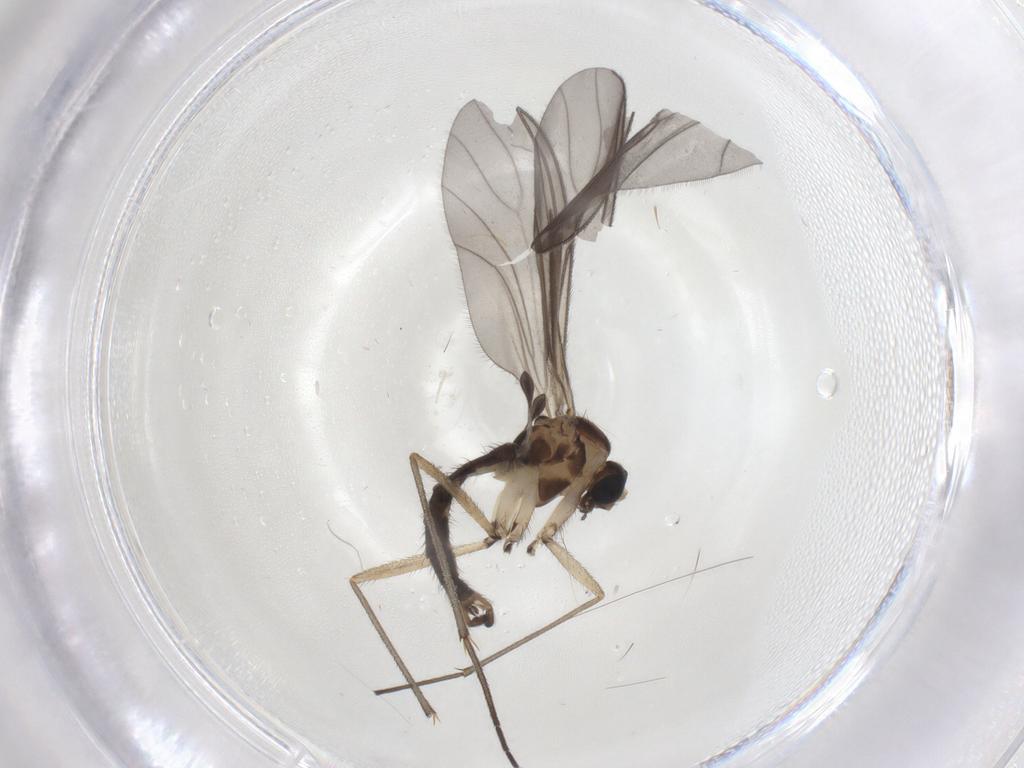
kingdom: Animalia
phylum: Arthropoda
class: Insecta
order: Diptera
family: Sciaridae
